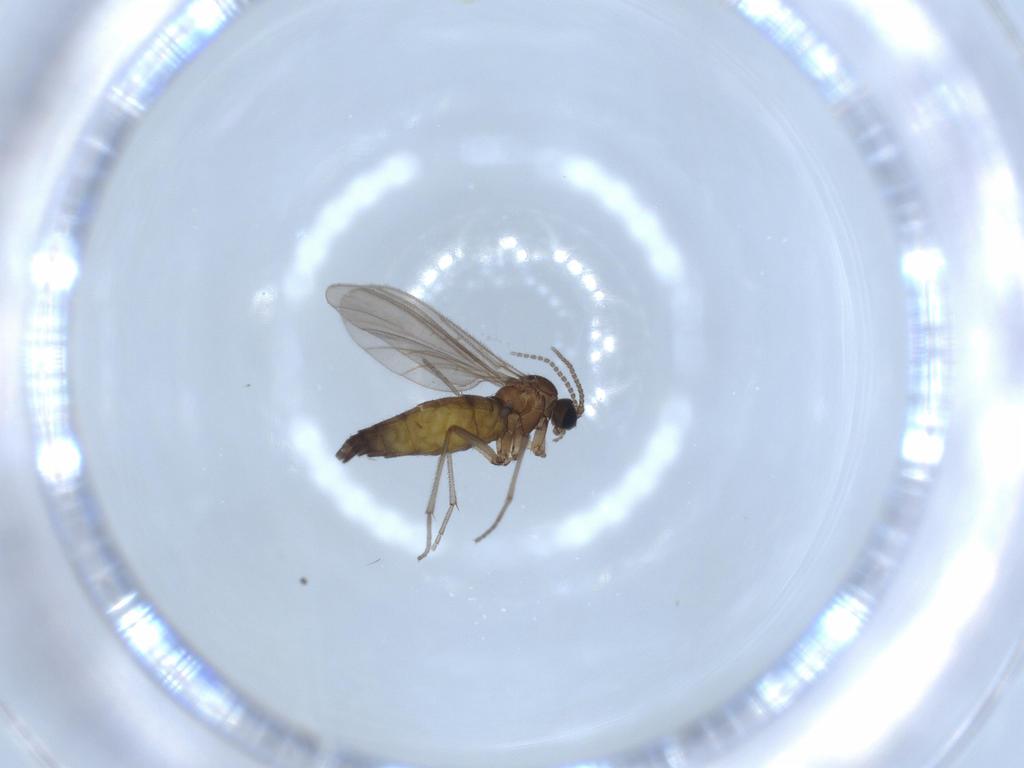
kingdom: Animalia
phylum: Arthropoda
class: Insecta
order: Diptera
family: Sciaridae
